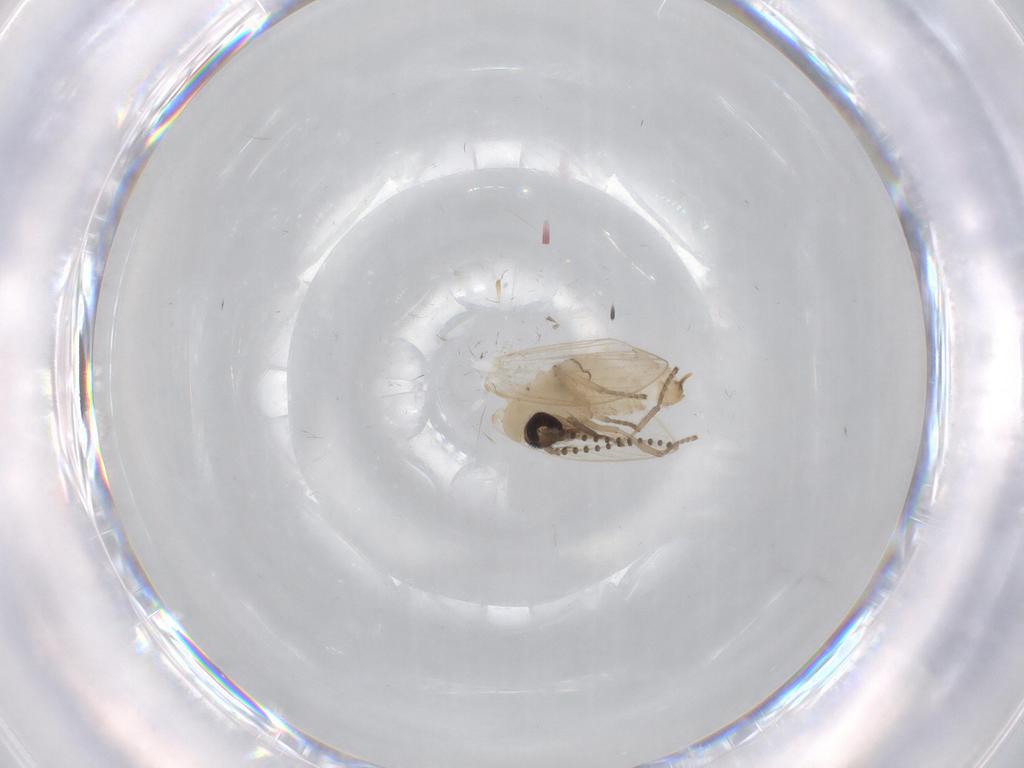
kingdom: Animalia
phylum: Arthropoda
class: Insecta
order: Diptera
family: Psychodidae
